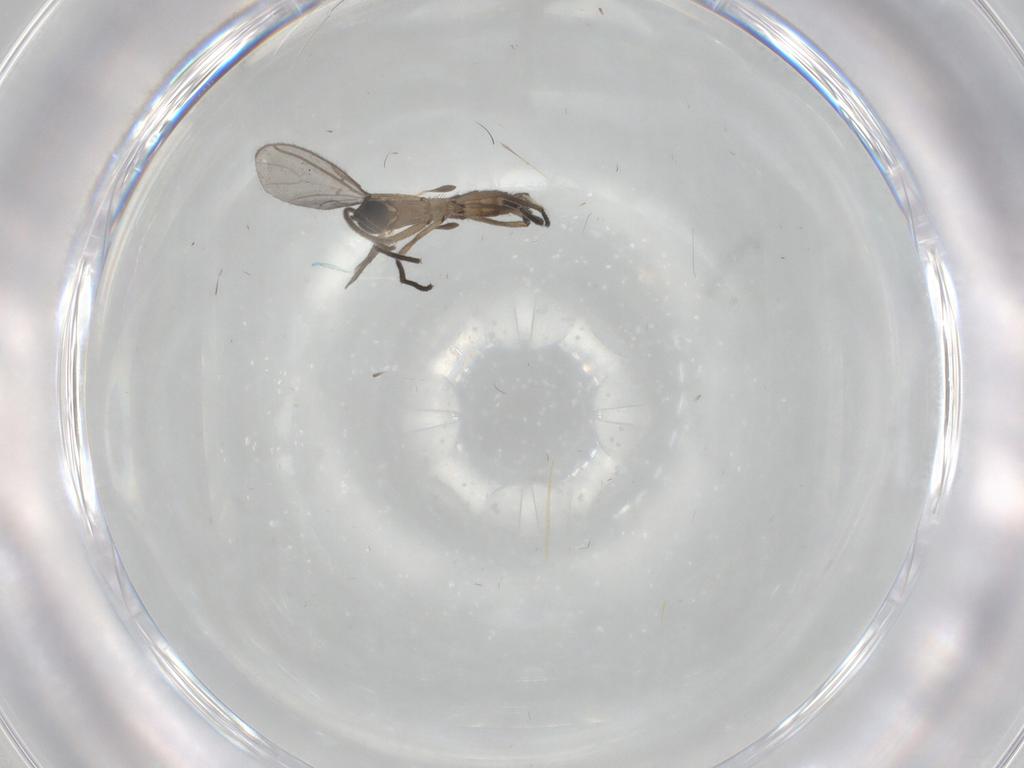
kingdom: Animalia
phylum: Arthropoda
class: Insecta
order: Diptera
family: Sciaridae
